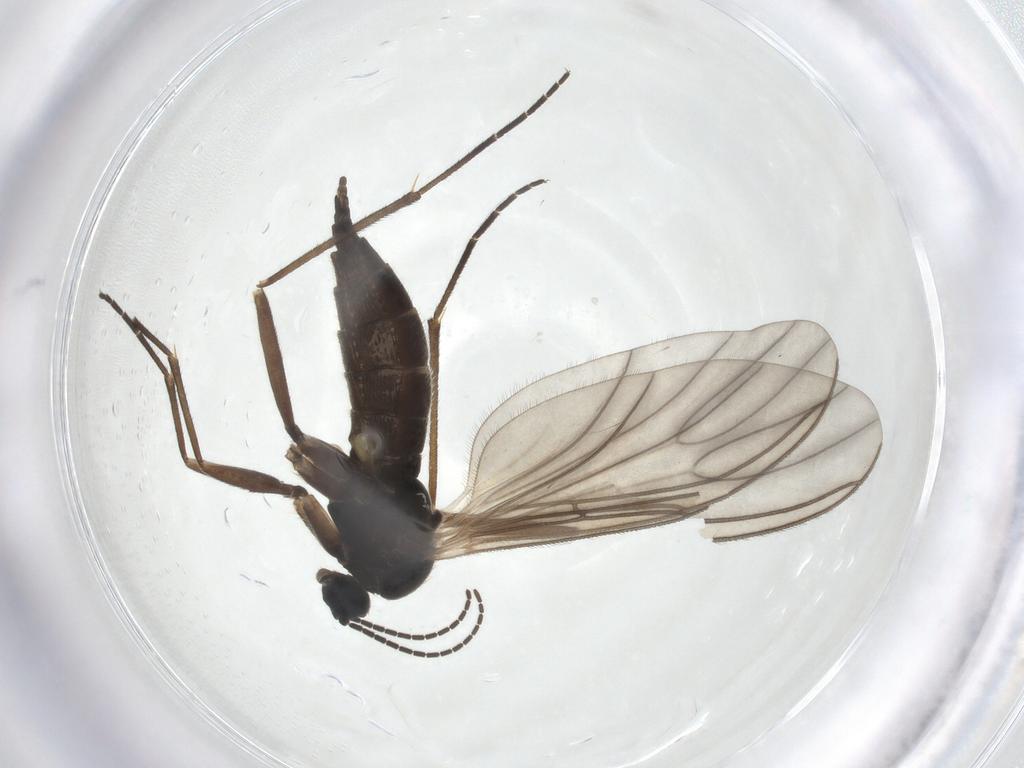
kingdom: Animalia
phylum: Arthropoda
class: Insecta
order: Diptera
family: Sciaridae
